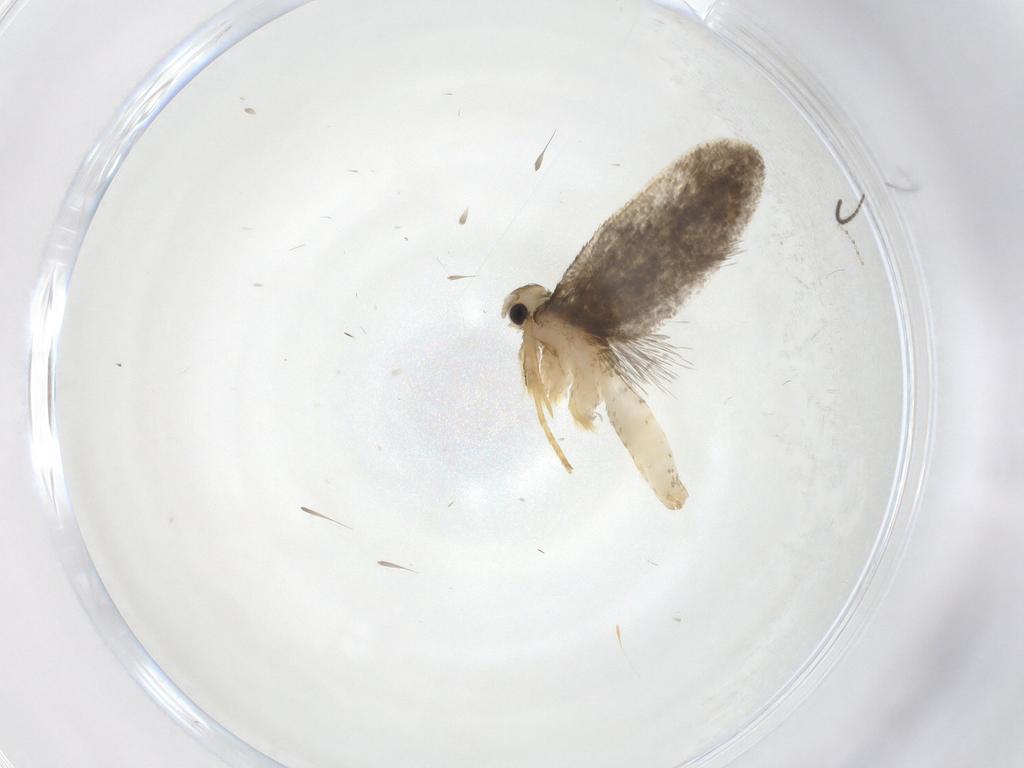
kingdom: Animalia
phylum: Arthropoda
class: Insecta
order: Lepidoptera
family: Psychidae
